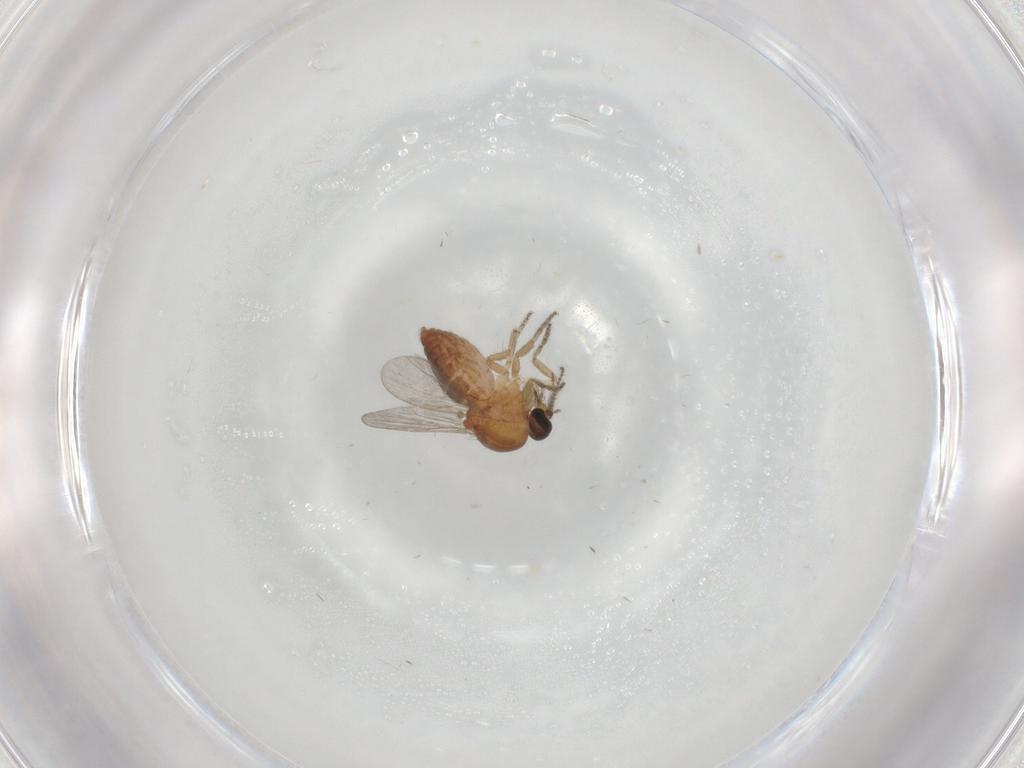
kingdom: Animalia
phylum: Arthropoda
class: Insecta
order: Diptera
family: Ceratopogonidae
